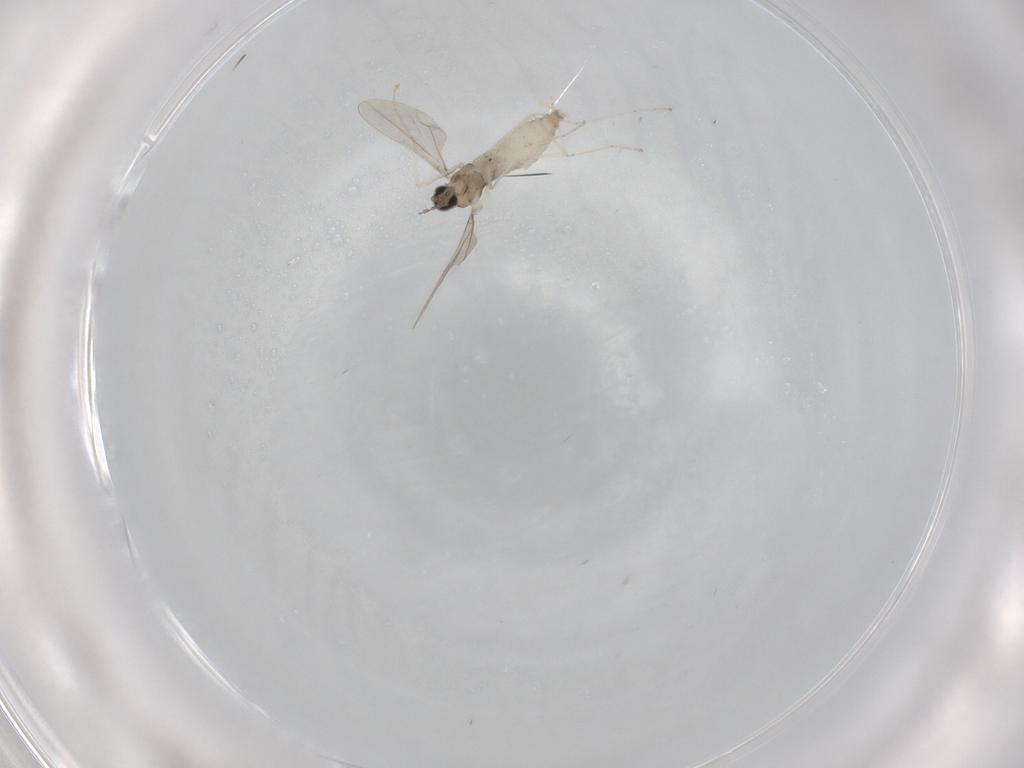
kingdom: Animalia
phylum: Arthropoda
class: Insecta
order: Diptera
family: Cecidomyiidae
